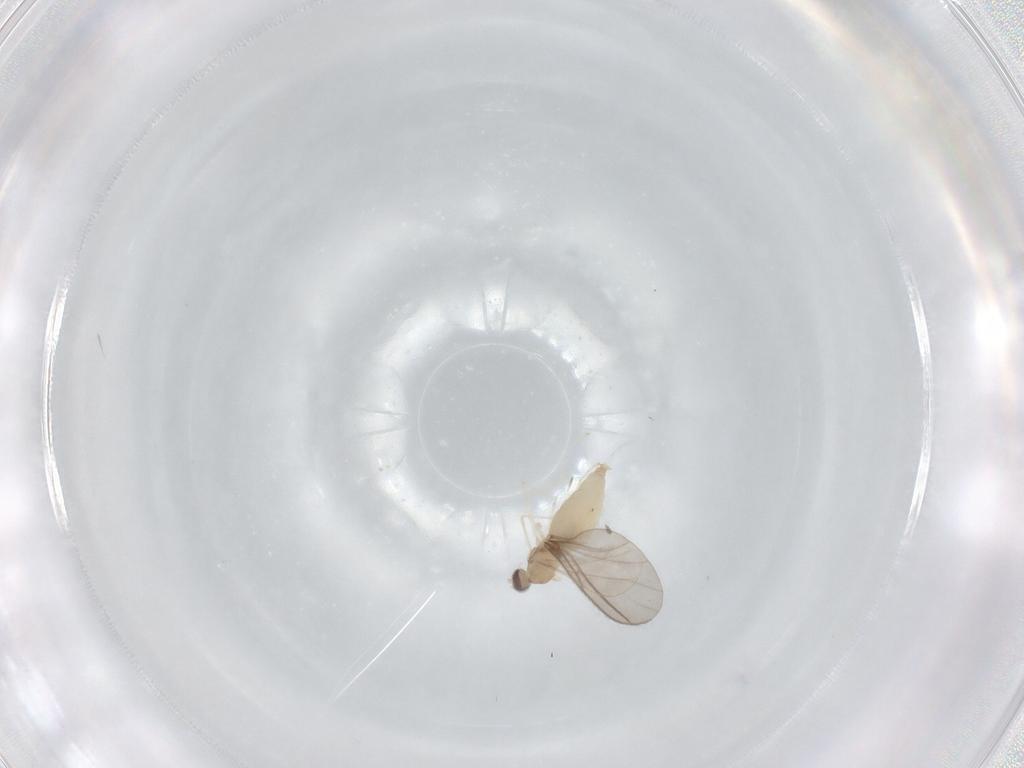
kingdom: Animalia
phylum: Arthropoda
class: Insecta
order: Diptera
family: Cecidomyiidae
